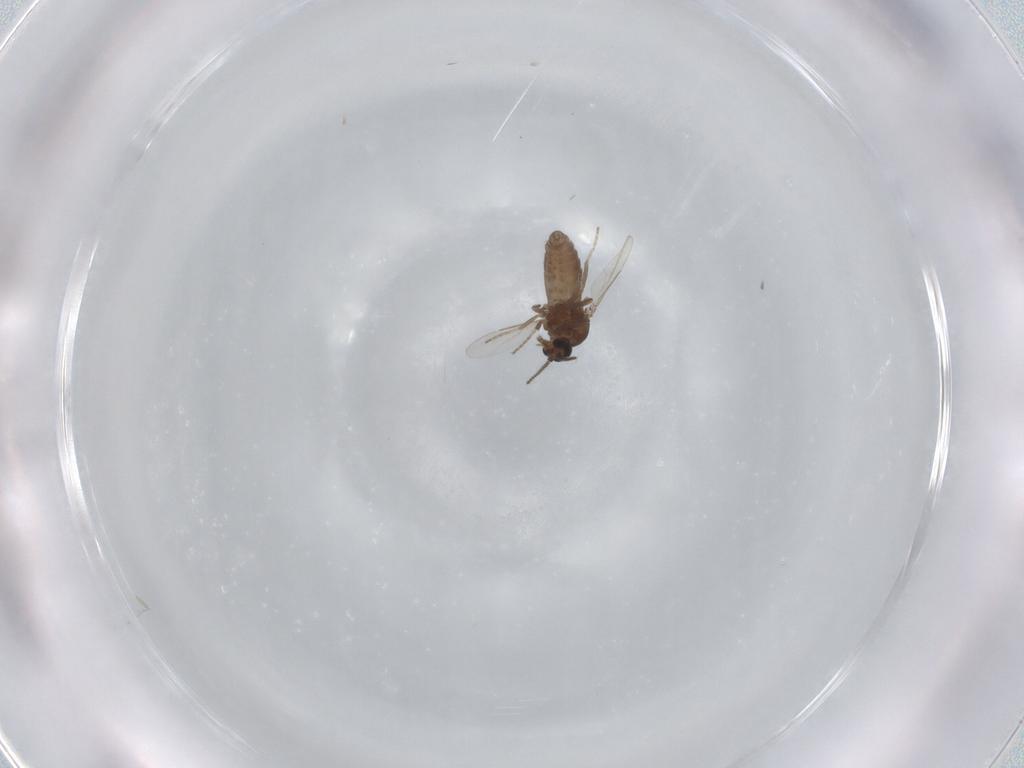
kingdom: Animalia
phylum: Arthropoda
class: Insecta
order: Diptera
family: Ceratopogonidae
